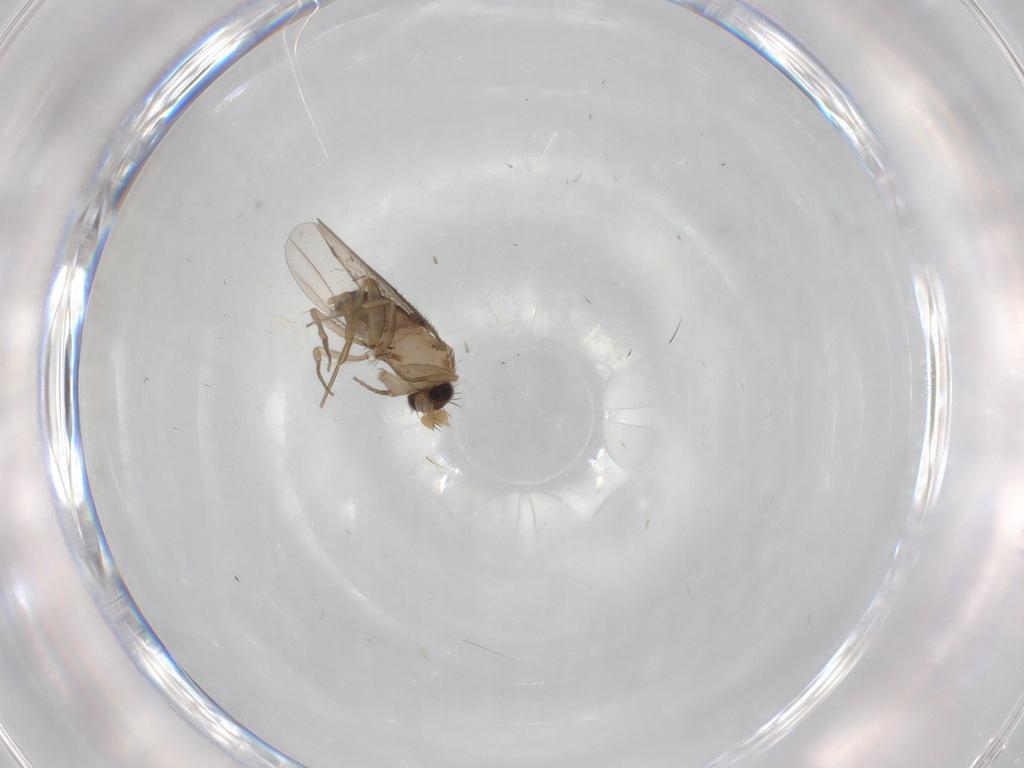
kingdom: Animalia
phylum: Arthropoda
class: Insecta
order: Diptera
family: Phoridae
